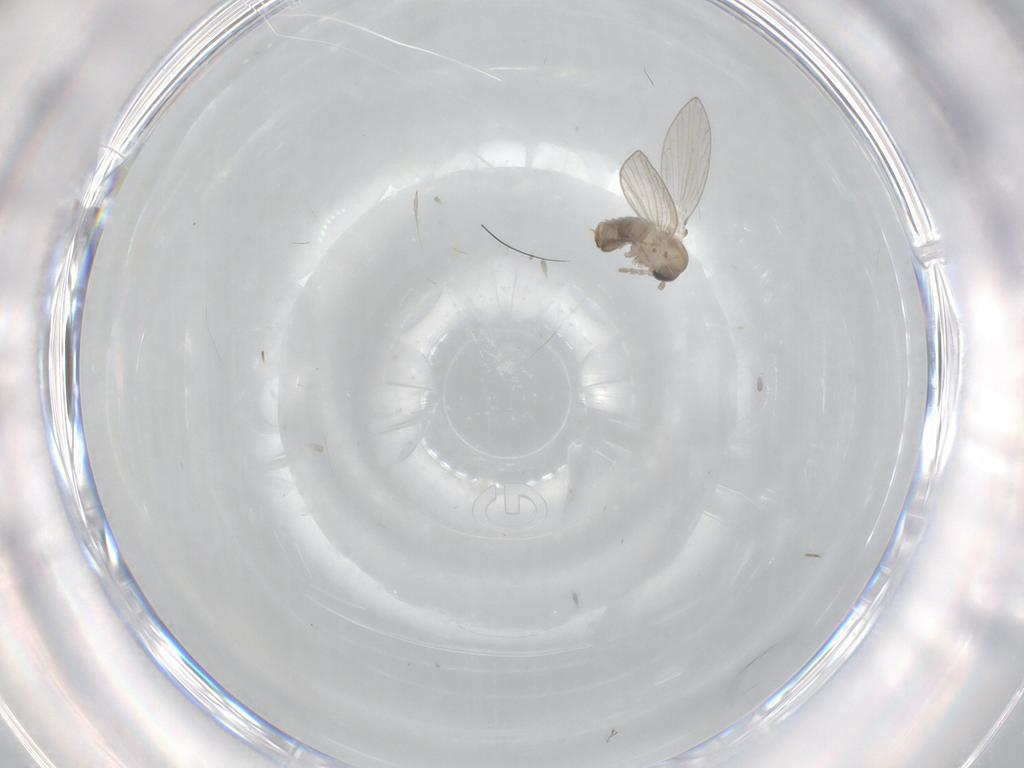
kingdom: Animalia
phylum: Arthropoda
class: Insecta
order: Diptera
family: Psychodidae
